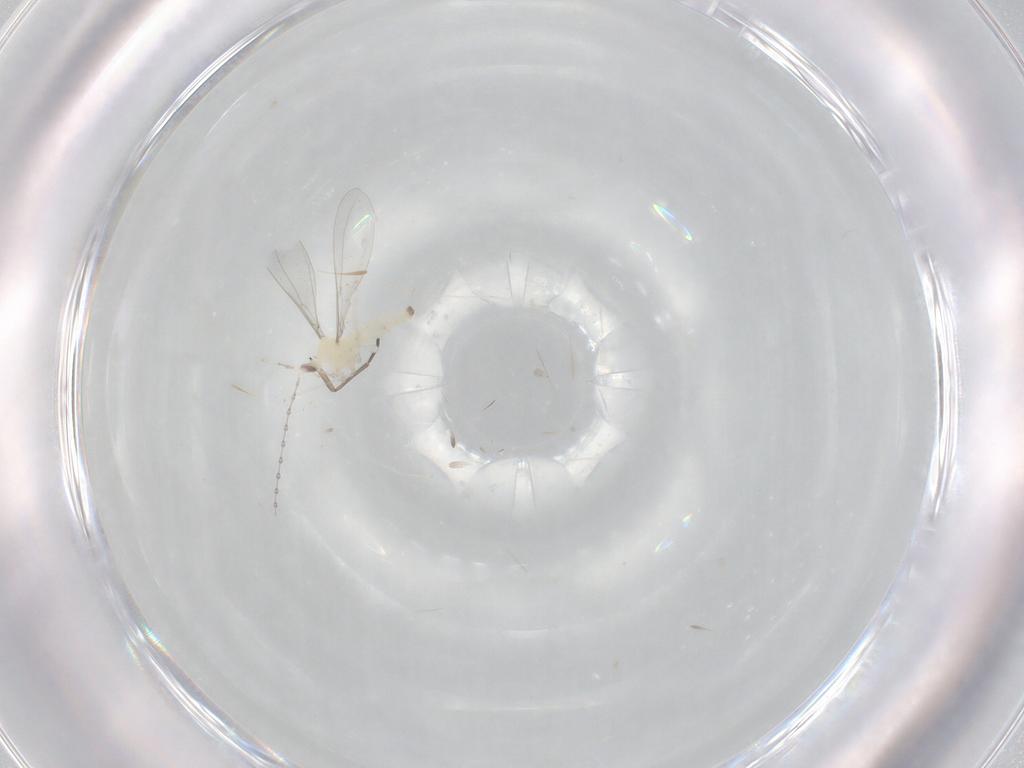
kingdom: Animalia
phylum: Arthropoda
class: Insecta
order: Diptera
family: Cecidomyiidae
